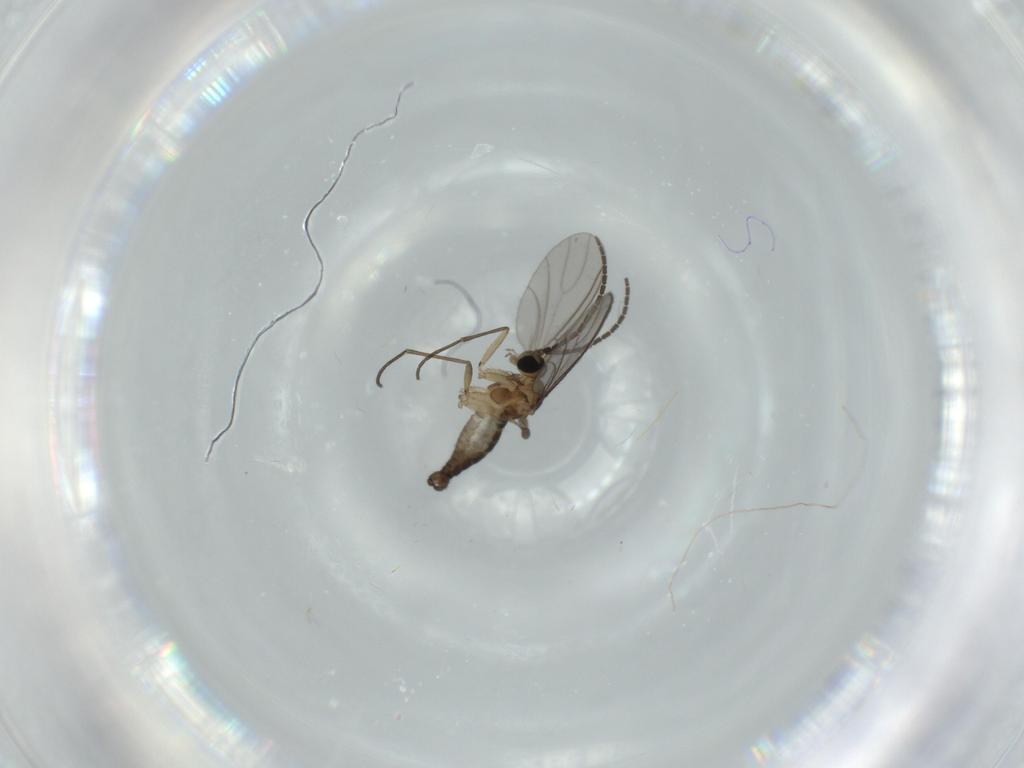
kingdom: Animalia
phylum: Arthropoda
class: Insecta
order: Diptera
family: Sciaridae
